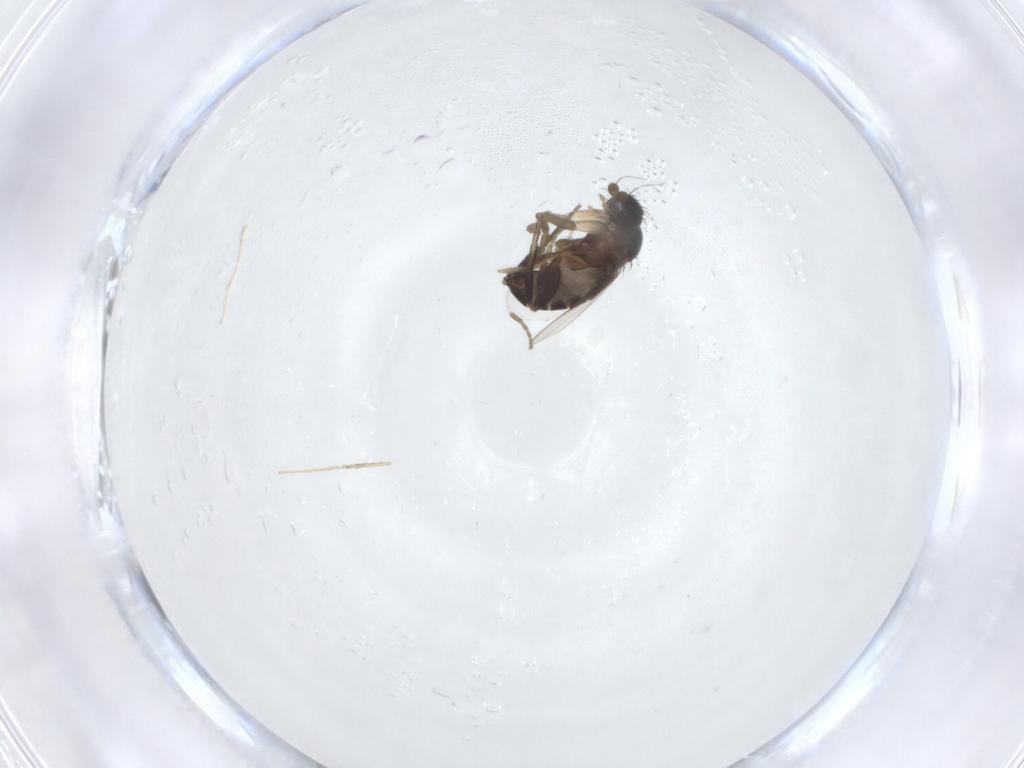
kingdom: Animalia
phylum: Arthropoda
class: Insecta
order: Diptera
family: Phoridae
